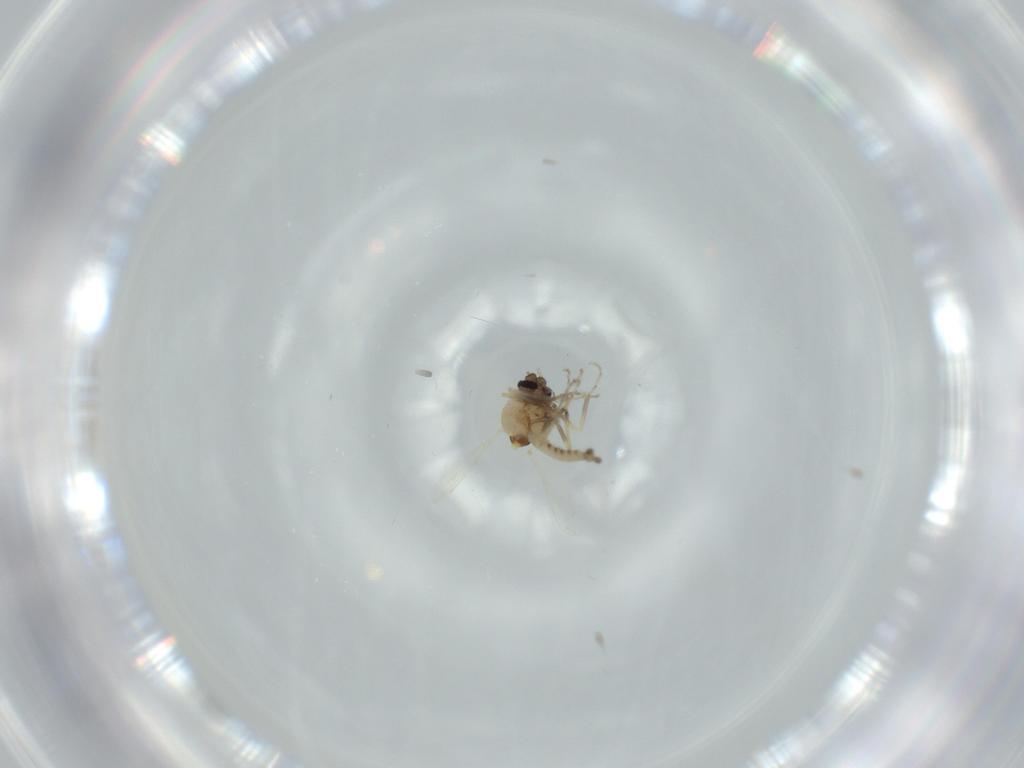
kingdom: Animalia
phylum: Arthropoda
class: Insecta
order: Diptera
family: Ceratopogonidae
